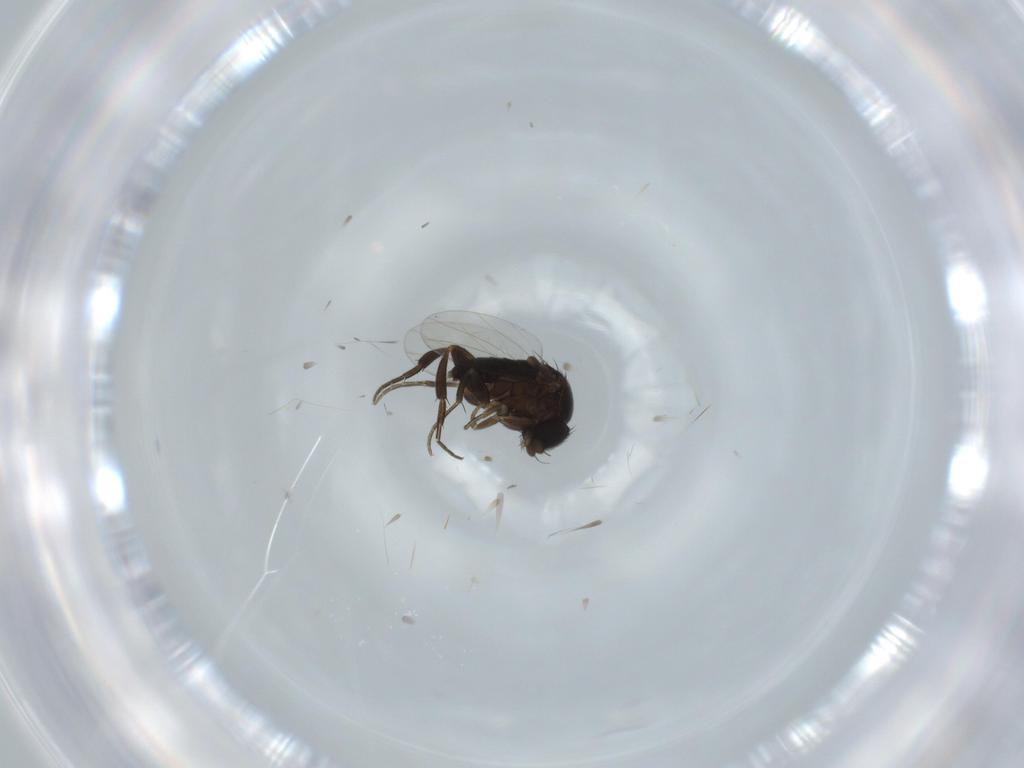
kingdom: Animalia
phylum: Arthropoda
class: Insecta
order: Diptera
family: Phoridae
